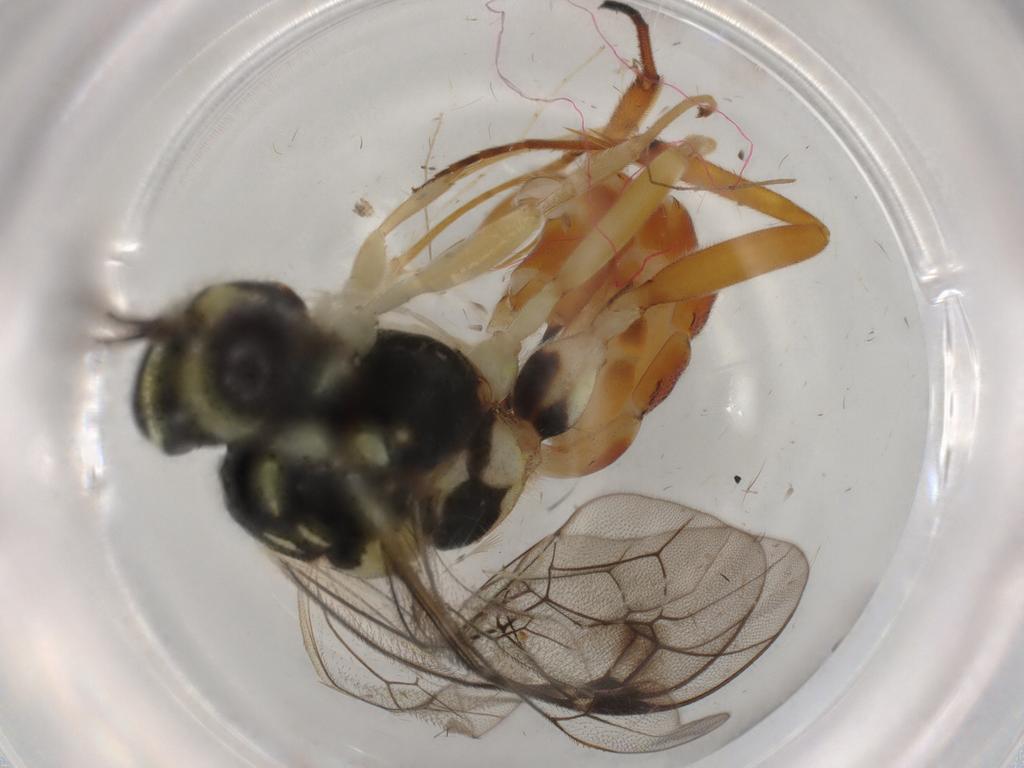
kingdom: Animalia
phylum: Arthropoda
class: Insecta
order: Hymenoptera
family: Ichneumonidae
